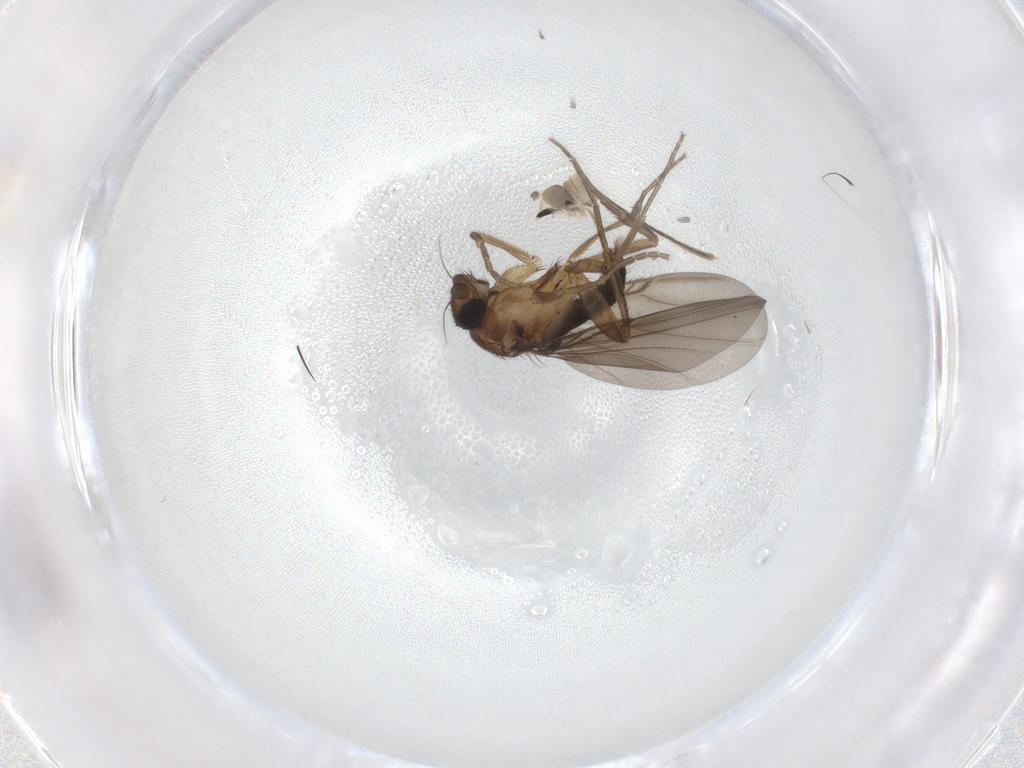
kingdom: Animalia
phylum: Arthropoda
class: Insecta
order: Diptera
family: Mycetophilidae
